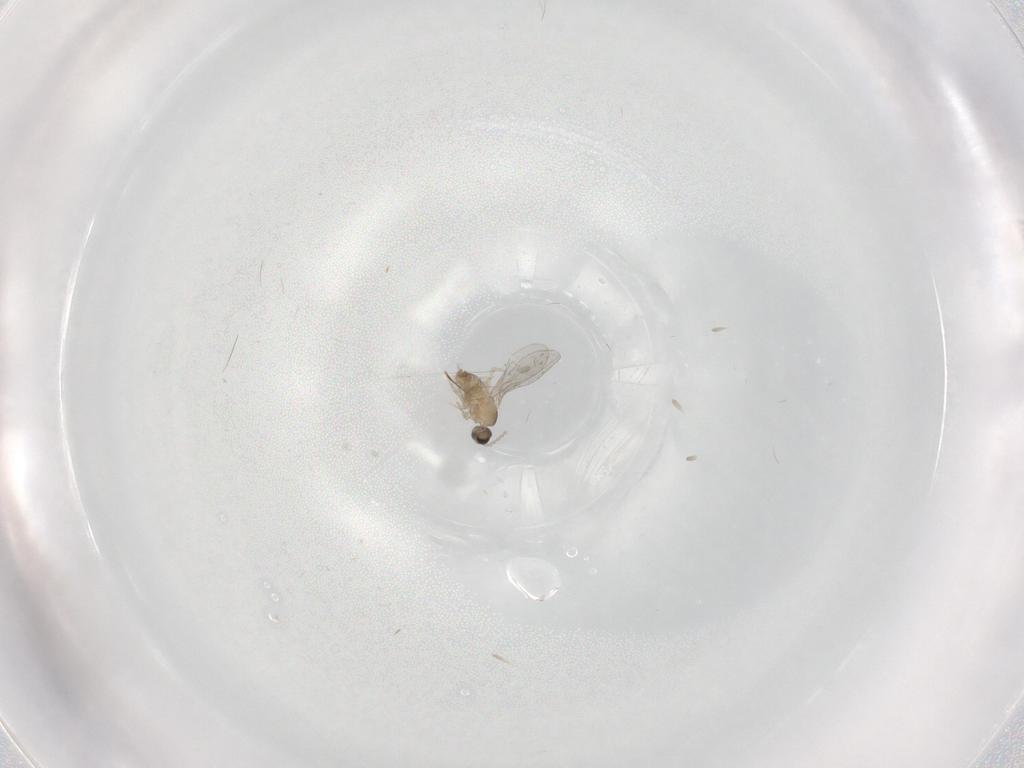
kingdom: Animalia
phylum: Arthropoda
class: Insecta
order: Diptera
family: Cecidomyiidae
